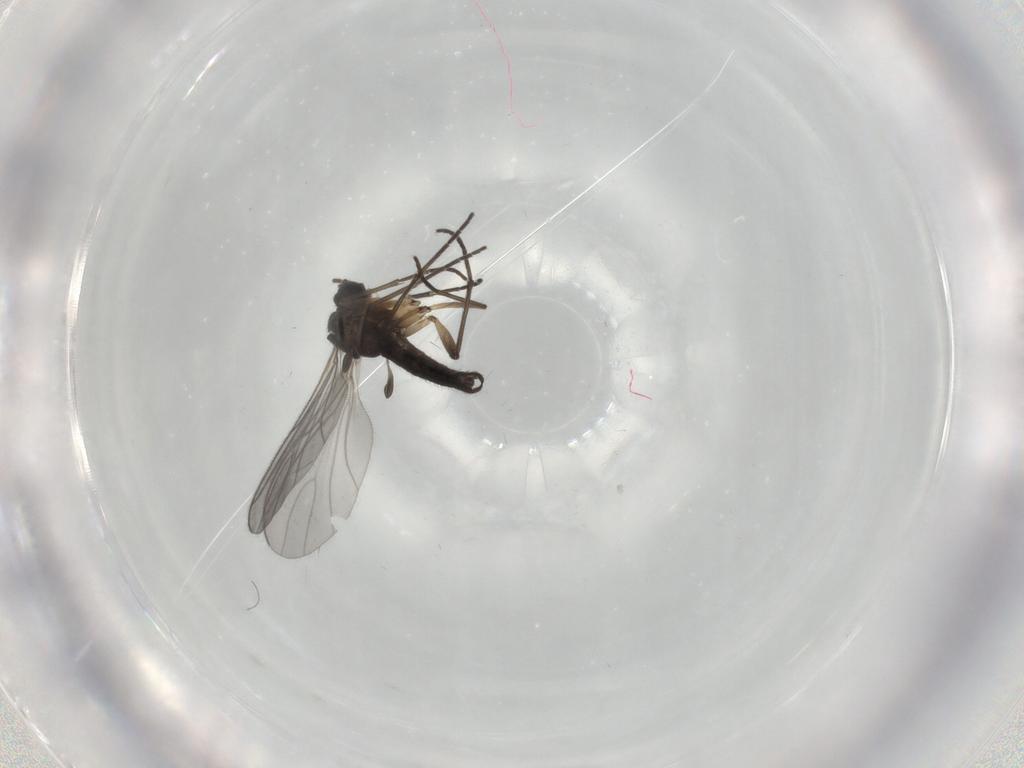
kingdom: Animalia
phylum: Arthropoda
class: Insecta
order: Diptera
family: Sciaridae
